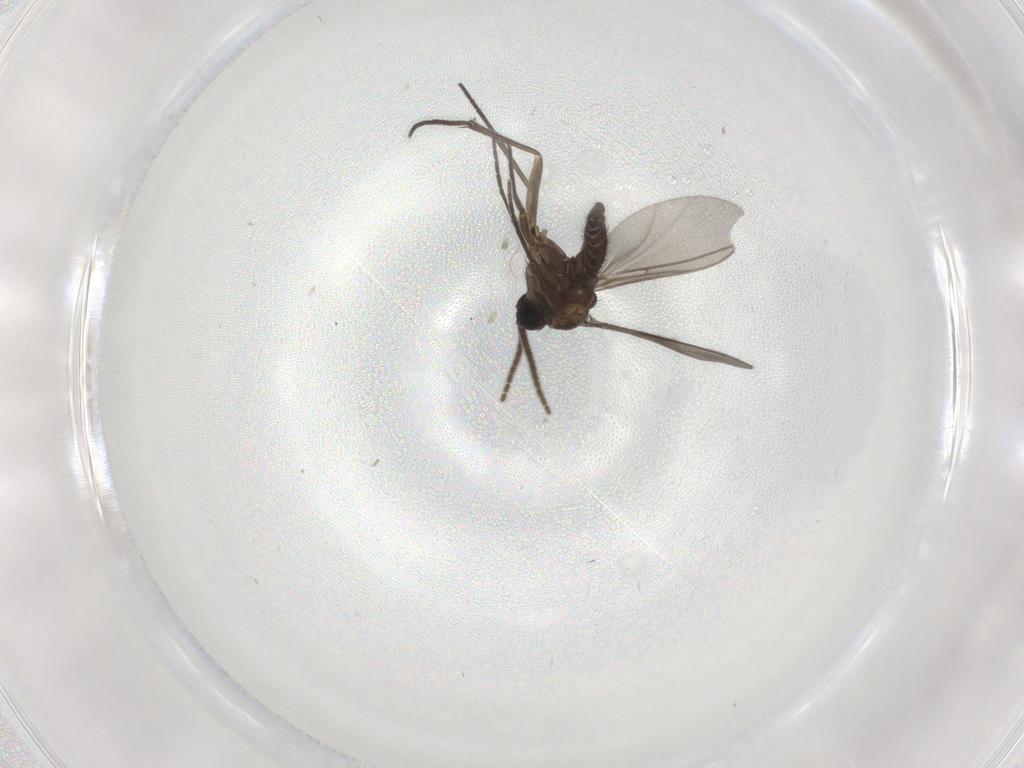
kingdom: Animalia
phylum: Arthropoda
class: Insecta
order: Diptera
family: Sciaridae
